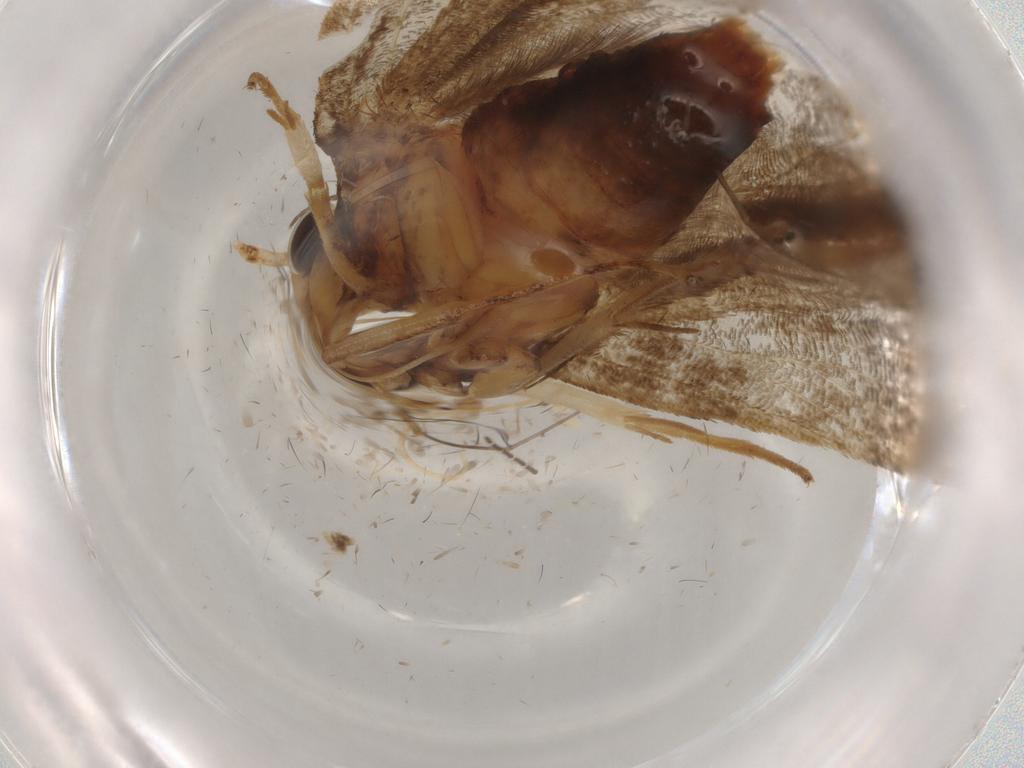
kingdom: Animalia
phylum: Arthropoda
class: Insecta
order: Lepidoptera
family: Lecithoceridae
